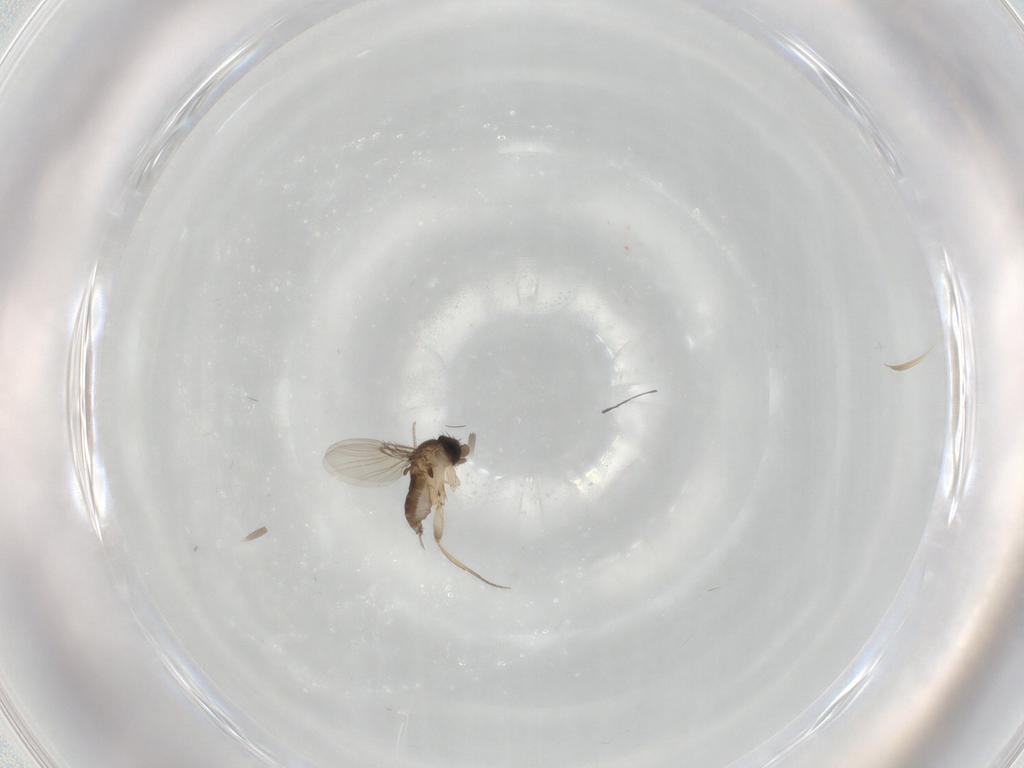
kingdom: Animalia
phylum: Arthropoda
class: Insecta
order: Diptera
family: Phoridae
